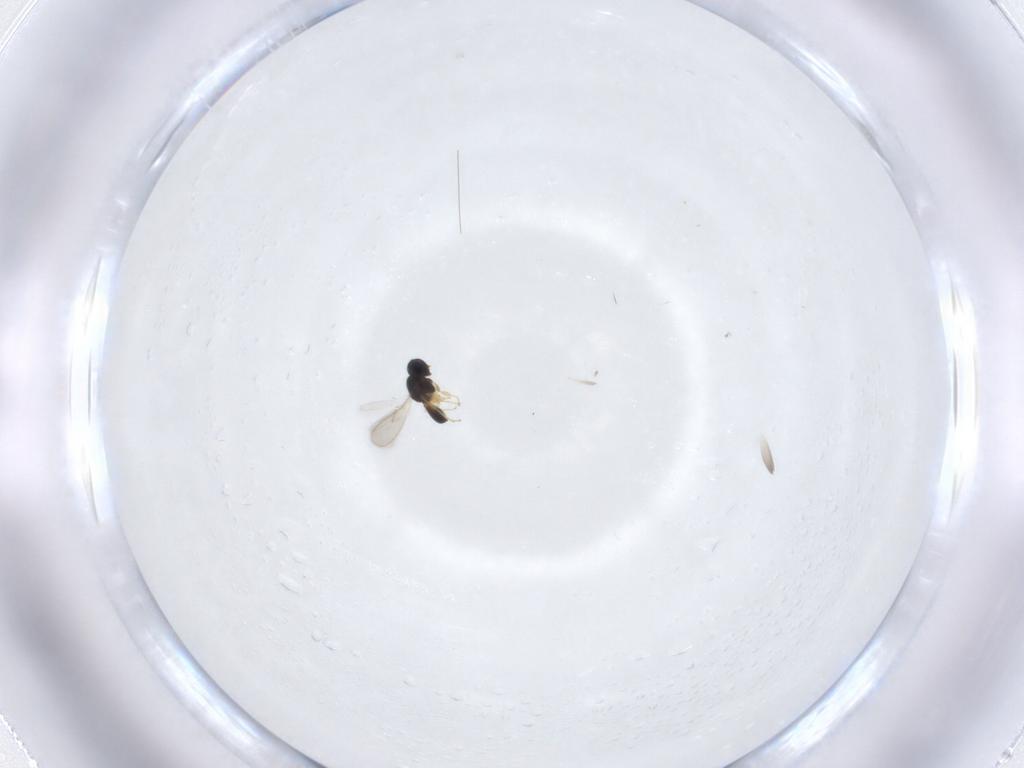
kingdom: Animalia
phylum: Arthropoda
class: Insecta
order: Hymenoptera
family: Scelionidae
